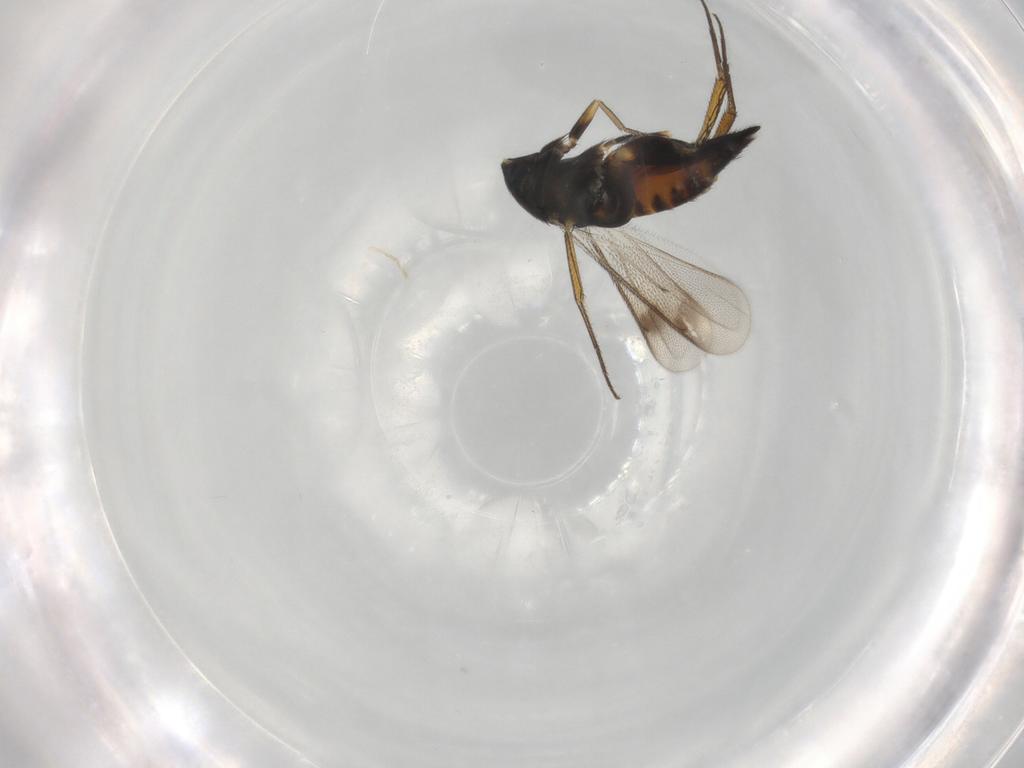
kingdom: Animalia
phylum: Arthropoda
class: Insecta
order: Hymenoptera
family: Eulophidae
